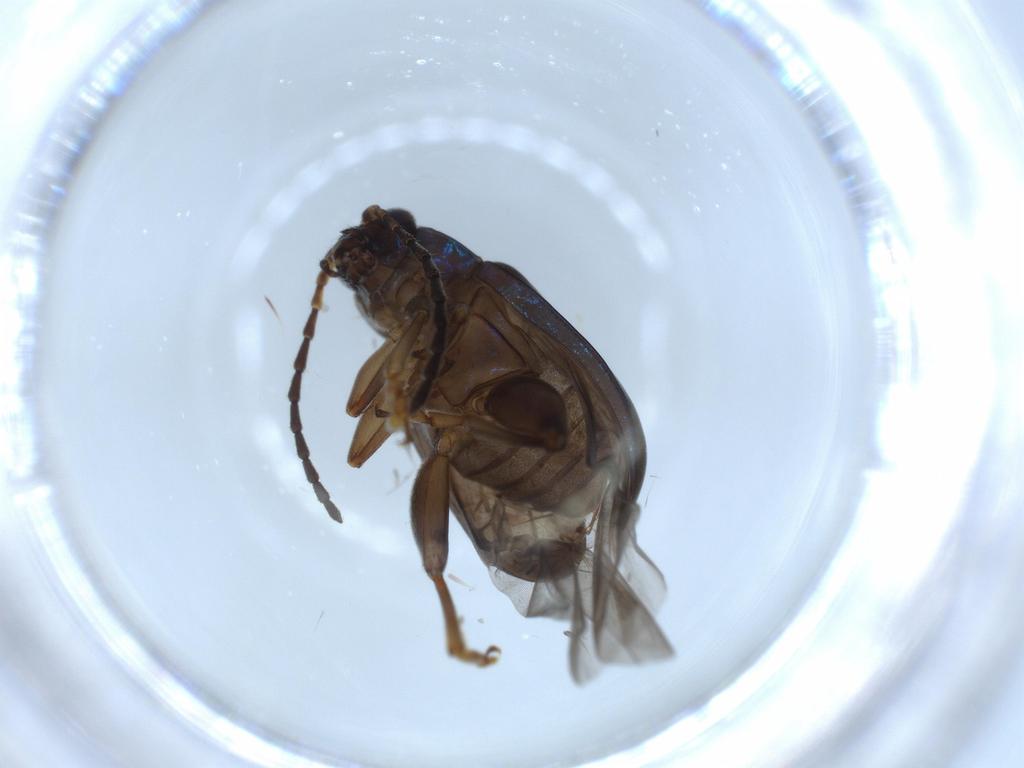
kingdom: Animalia
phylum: Arthropoda
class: Insecta
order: Coleoptera
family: Chrysomelidae
